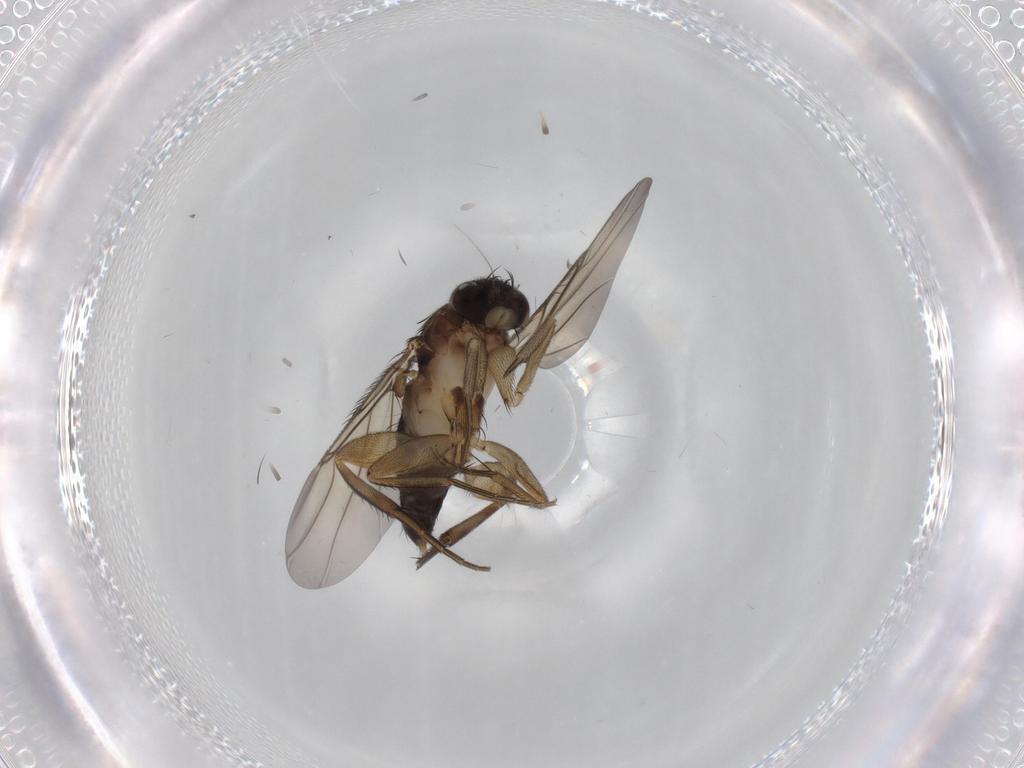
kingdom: Animalia
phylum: Arthropoda
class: Insecta
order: Diptera
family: Phoridae
